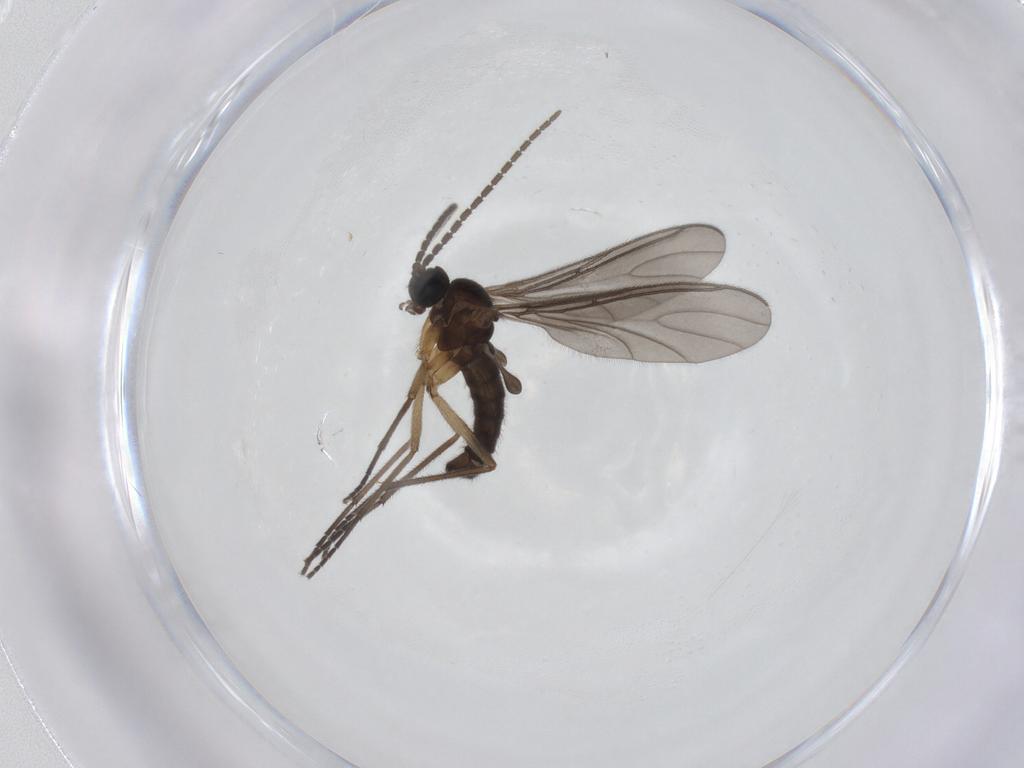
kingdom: Animalia
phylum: Arthropoda
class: Insecta
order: Diptera
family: Sciaridae
